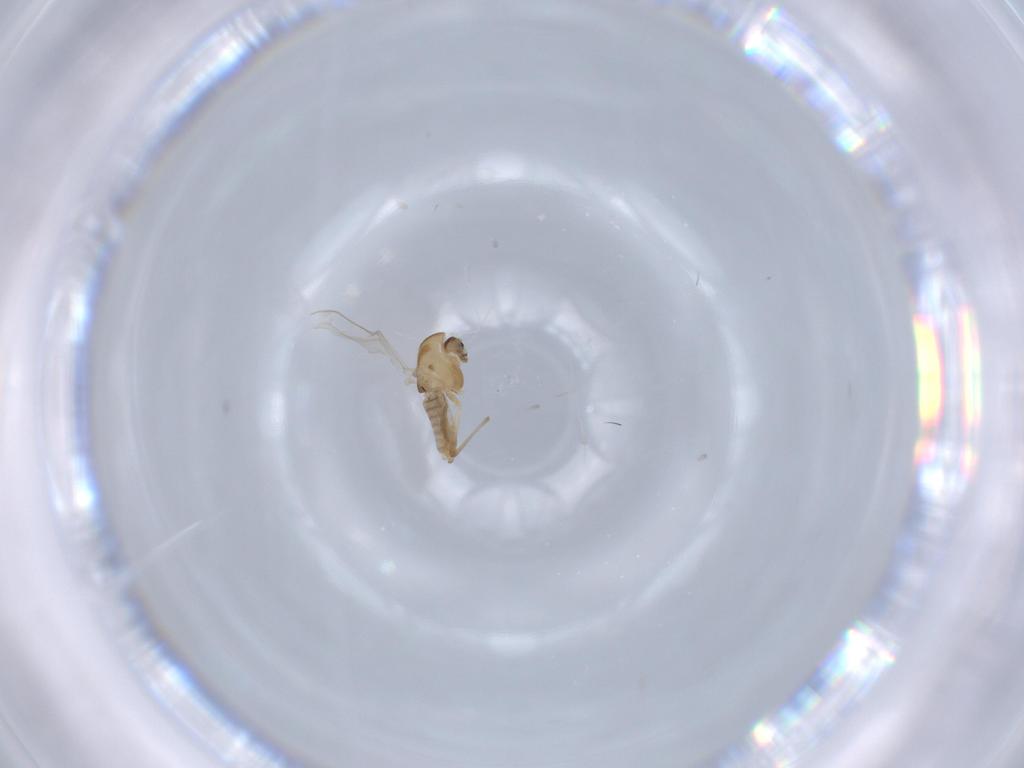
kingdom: Animalia
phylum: Arthropoda
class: Insecta
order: Diptera
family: Chironomidae
